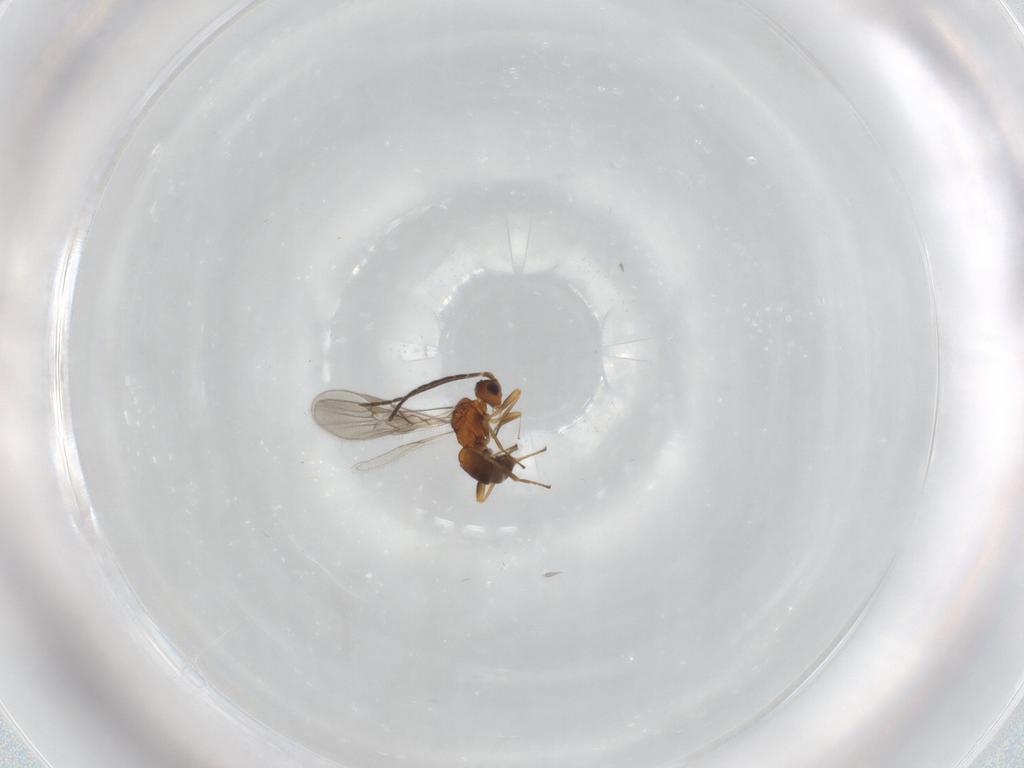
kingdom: Animalia
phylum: Arthropoda
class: Insecta
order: Hymenoptera
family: Braconidae
